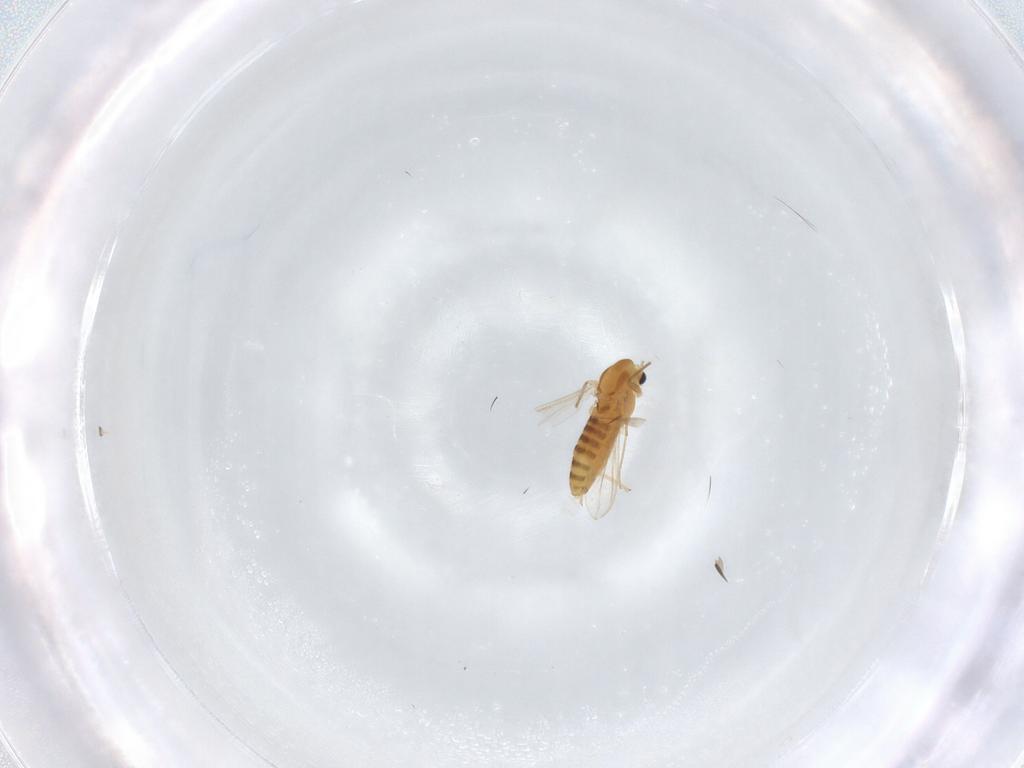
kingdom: Animalia
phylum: Arthropoda
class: Insecta
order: Diptera
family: Chironomidae
